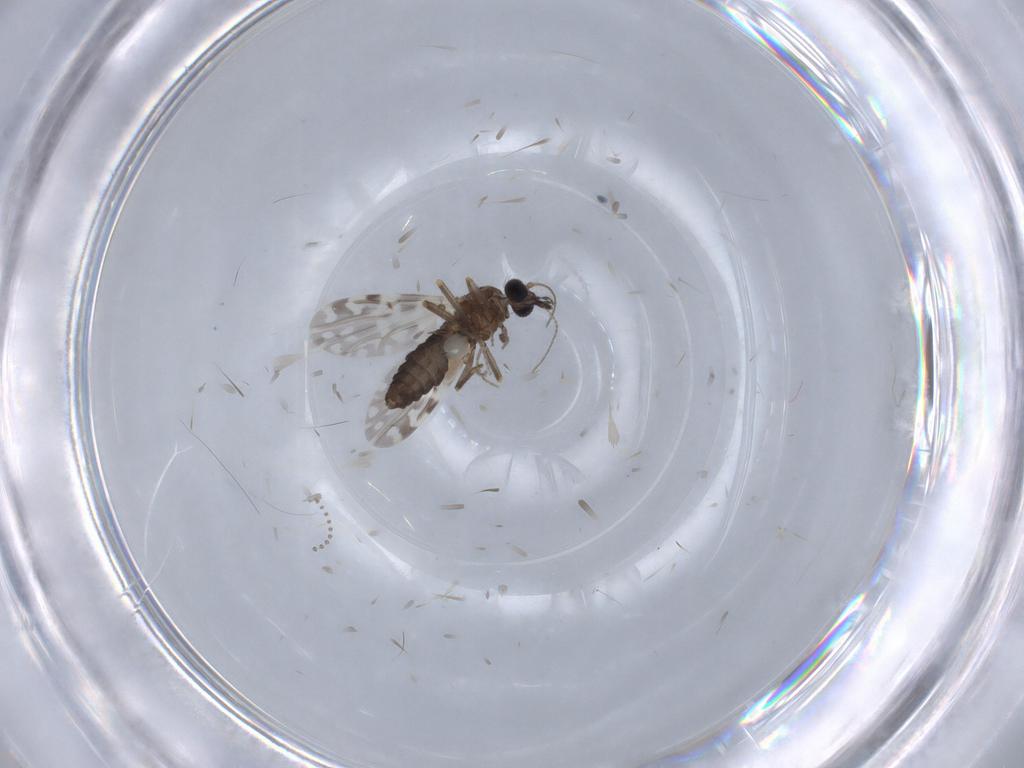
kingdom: Animalia
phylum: Arthropoda
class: Insecta
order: Diptera
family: Ceratopogonidae
